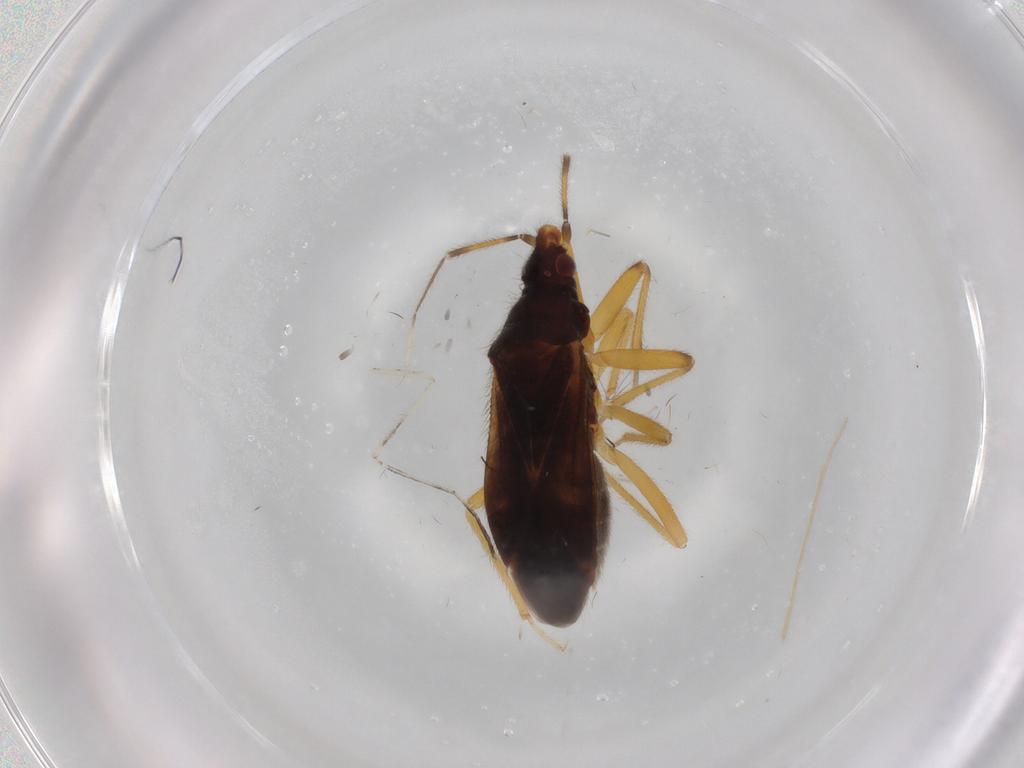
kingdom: Animalia
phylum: Arthropoda
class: Insecta
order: Hemiptera
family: Anthocoridae
